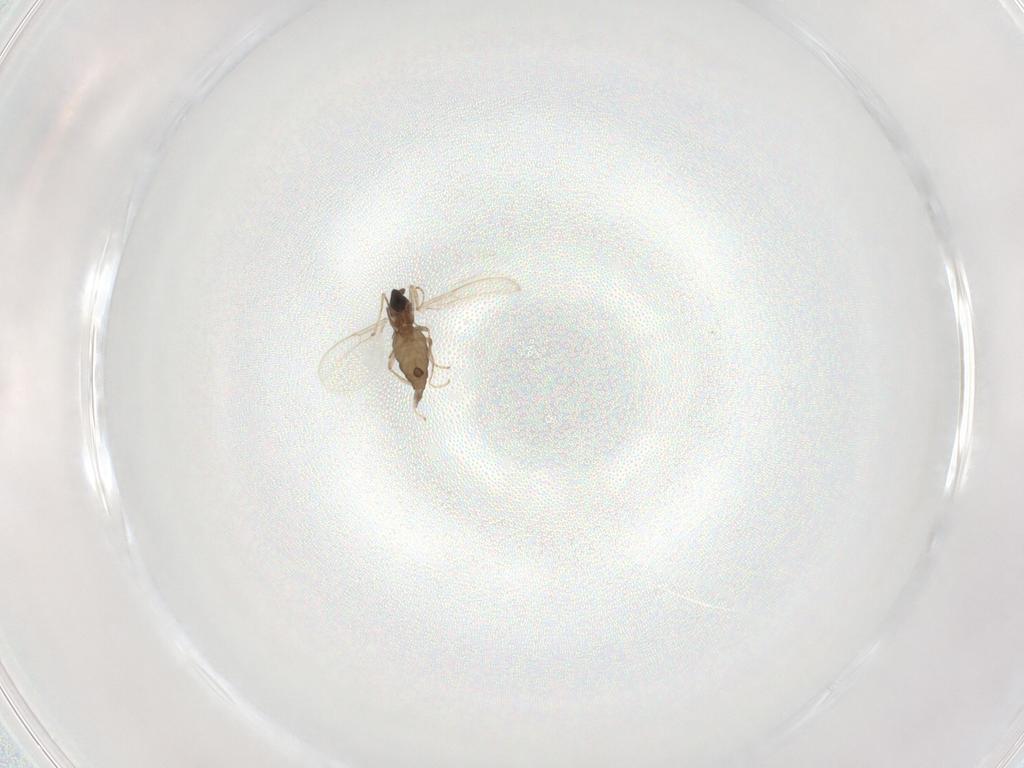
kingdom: Animalia
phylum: Arthropoda
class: Insecta
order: Diptera
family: Cecidomyiidae
